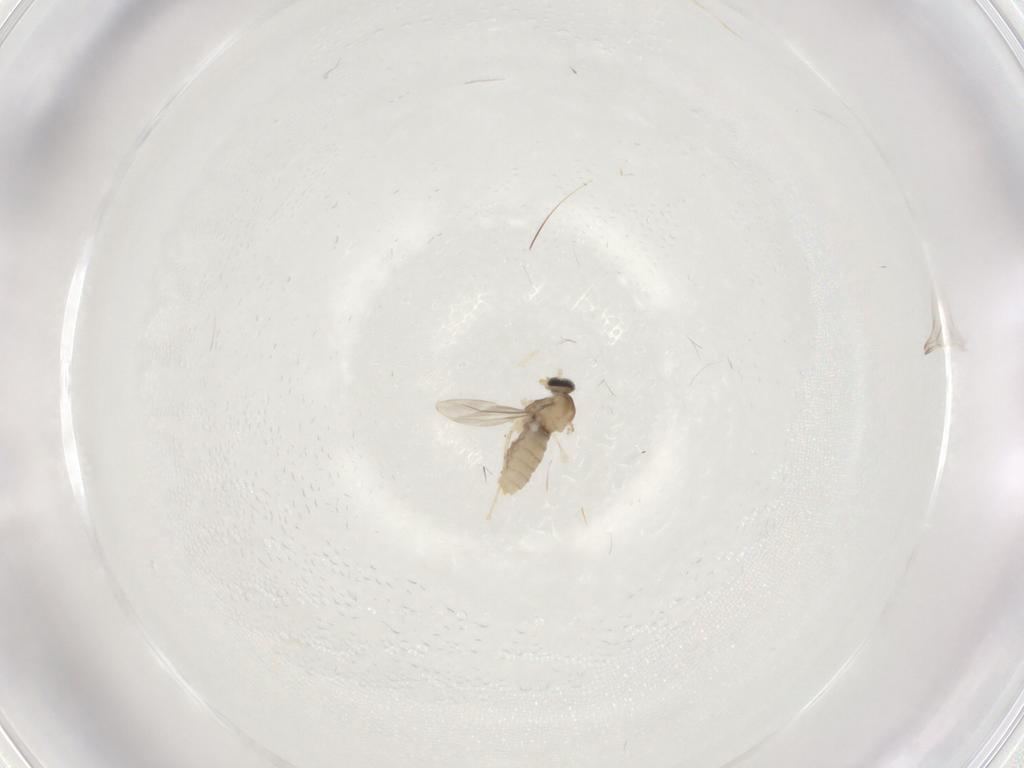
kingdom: Animalia
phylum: Arthropoda
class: Insecta
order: Diptera
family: Cecidomyiidae
